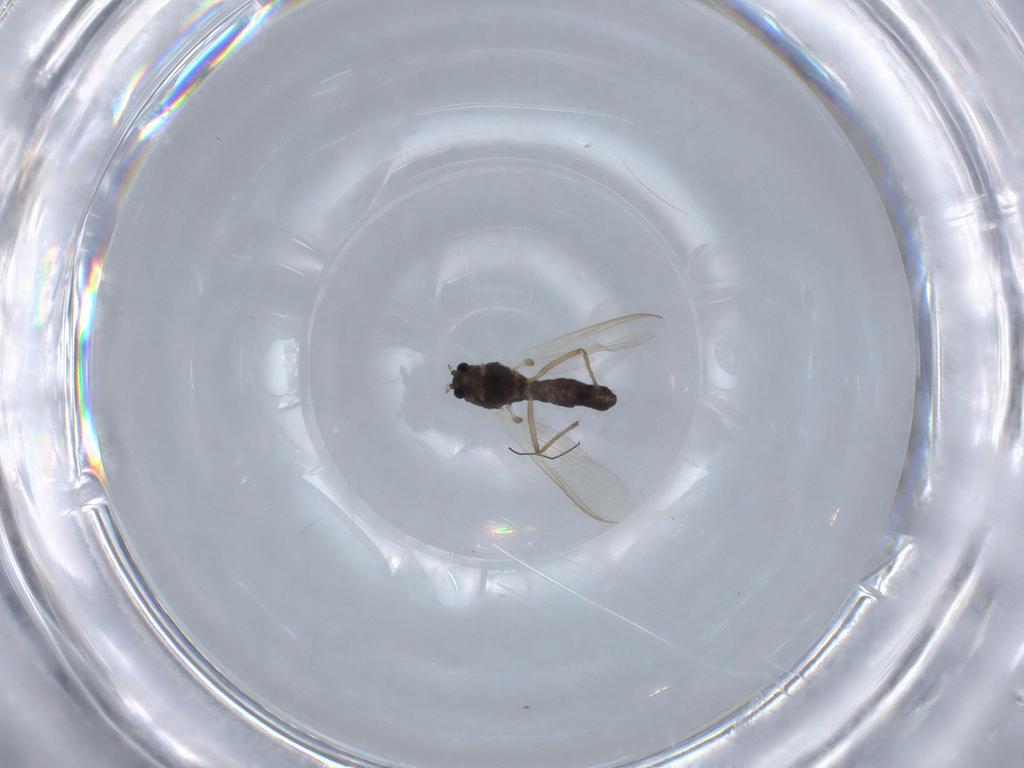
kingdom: Animalia
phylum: Arthropoda
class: Insecta
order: Diptera
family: Chironomidae
